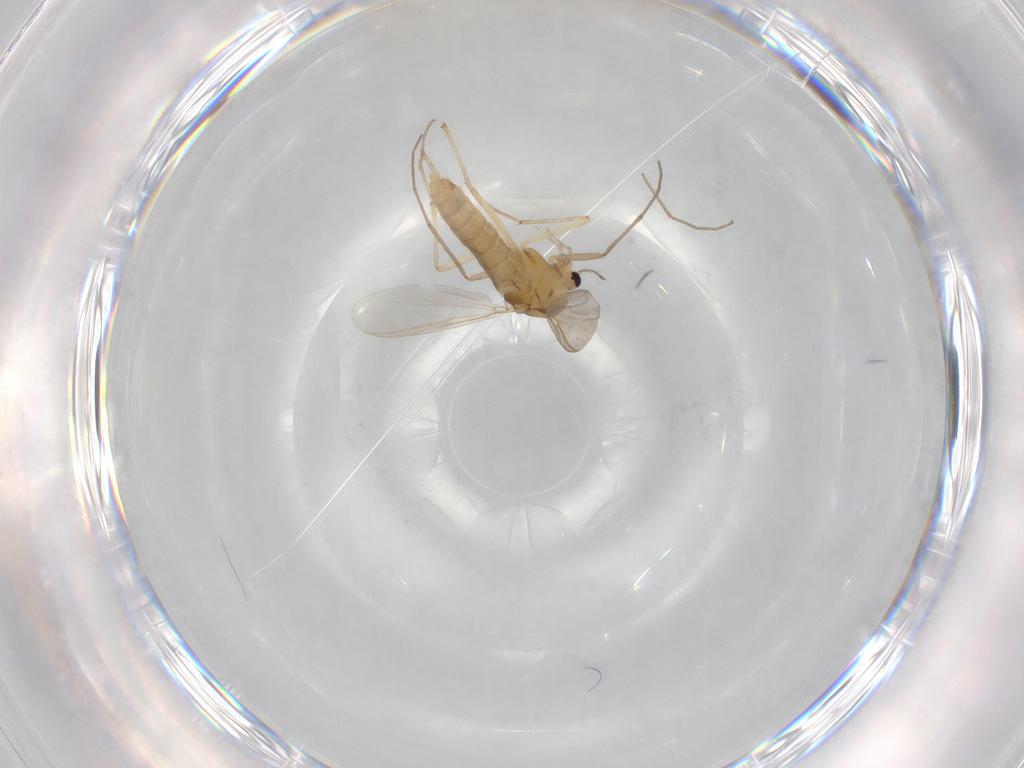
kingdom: Animalia
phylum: Arthropoda
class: Insecta
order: Diptera
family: Chironomidae
